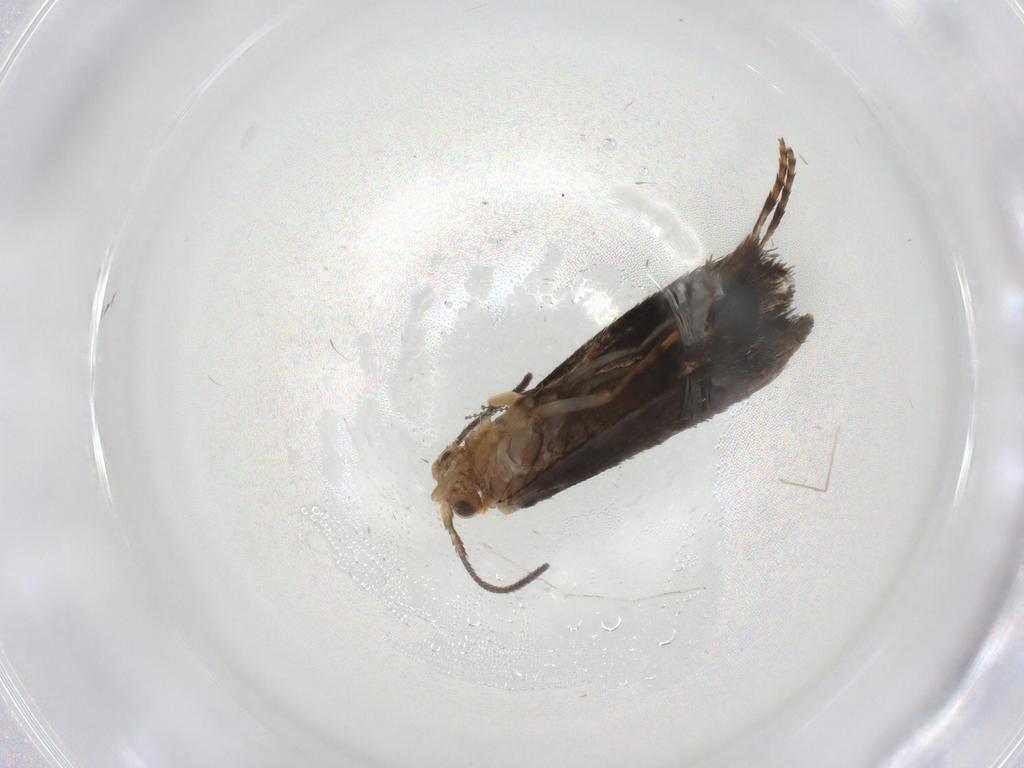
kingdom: Animalia
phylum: Arthropoda
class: Insecta
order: Lepidoptera
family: Micropterigidae
